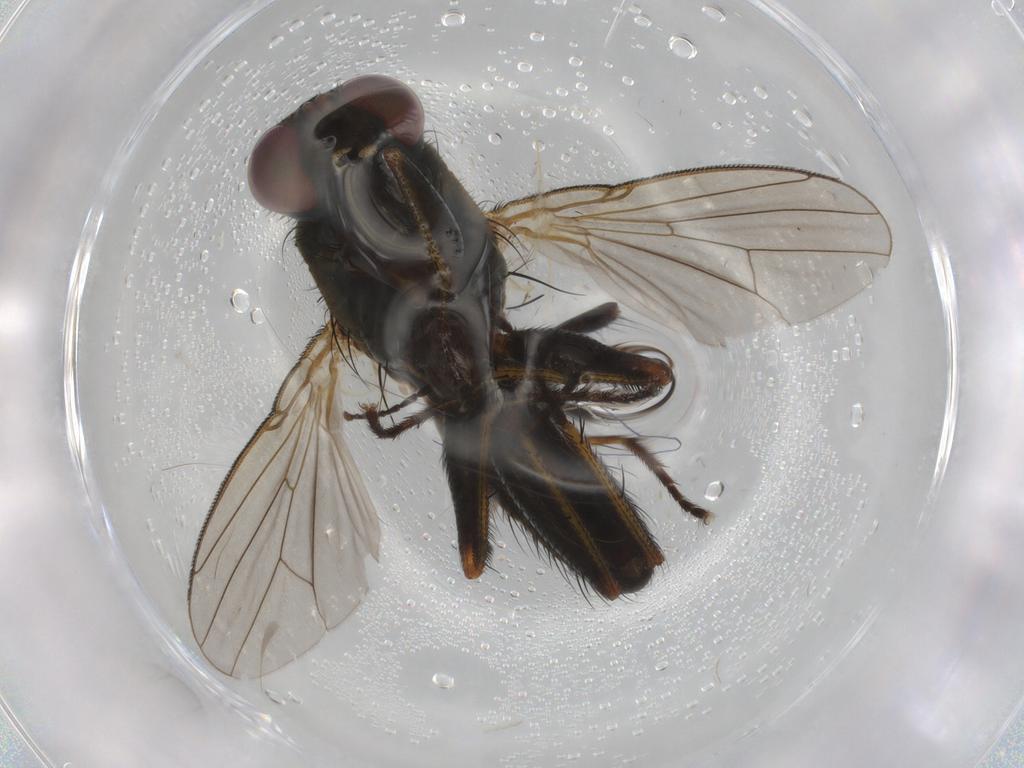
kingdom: Animalia
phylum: Arthropoda
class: Insecta
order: Diptera
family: Muscidae
